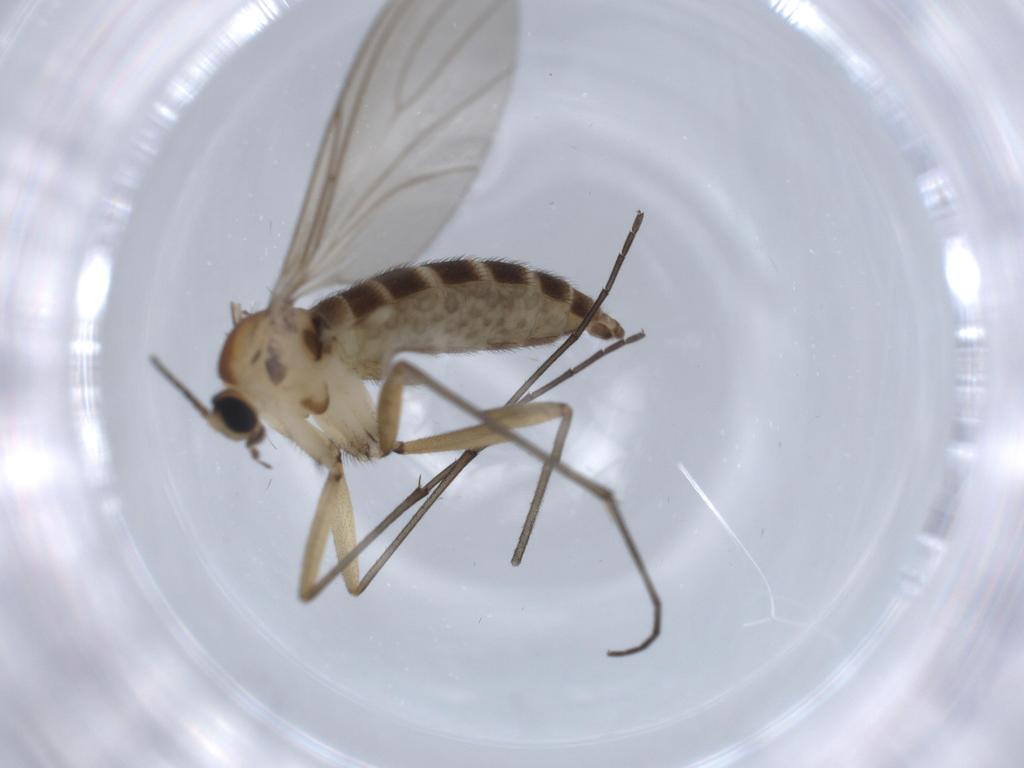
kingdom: Animalia
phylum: Arthropoda
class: Insecta
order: Diptera
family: Sciaridae
